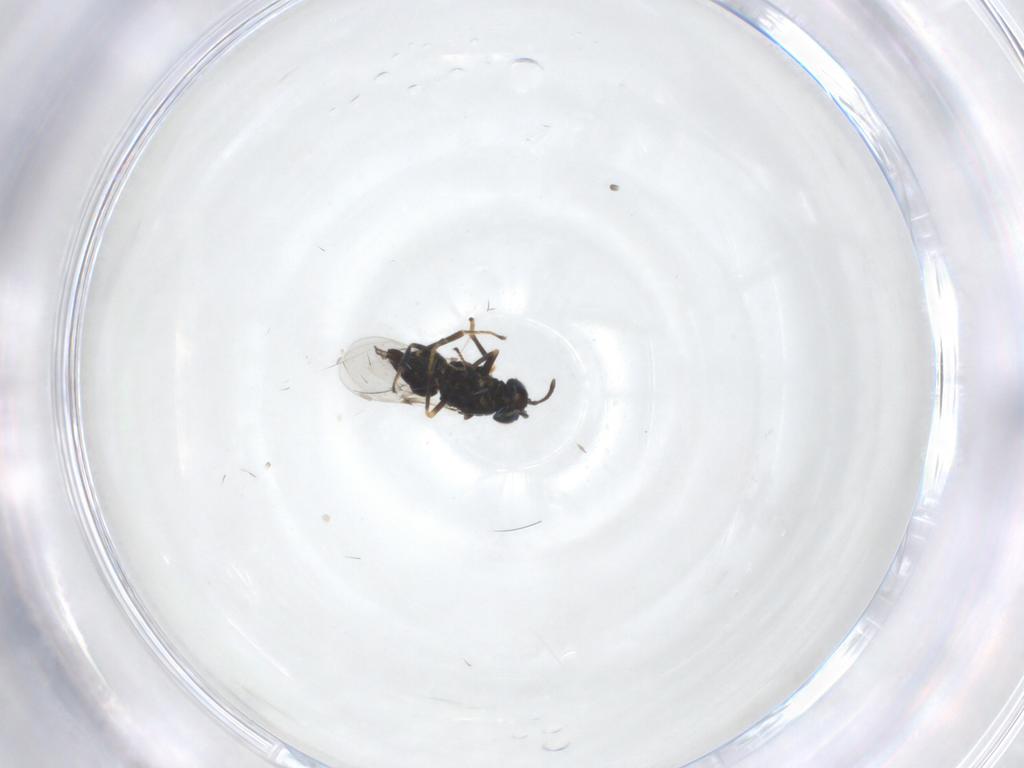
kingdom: Animalia
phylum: Arthropoda
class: Insecta
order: Hymenoptera
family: Encyrtidae
